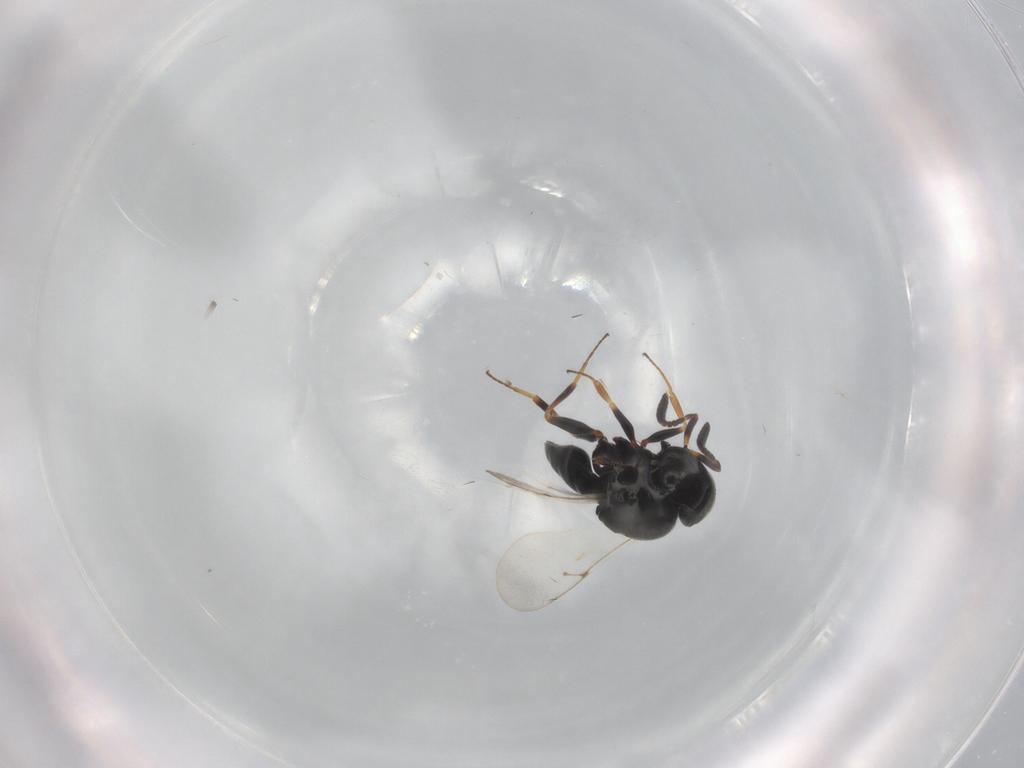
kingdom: Animalia
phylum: Arthropoda
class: Insecta
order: Hymenoptera
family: Scelionidae
